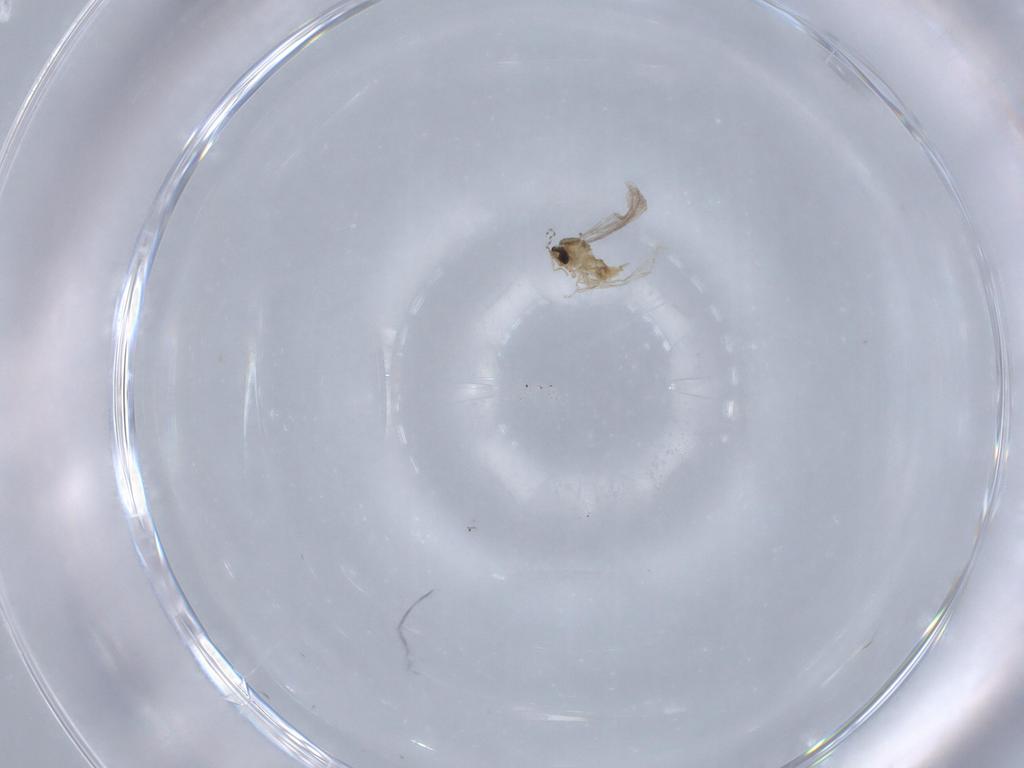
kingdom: Animalia
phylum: Arthropoda
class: Insecta
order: Diptera
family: Cecidomyiidae
